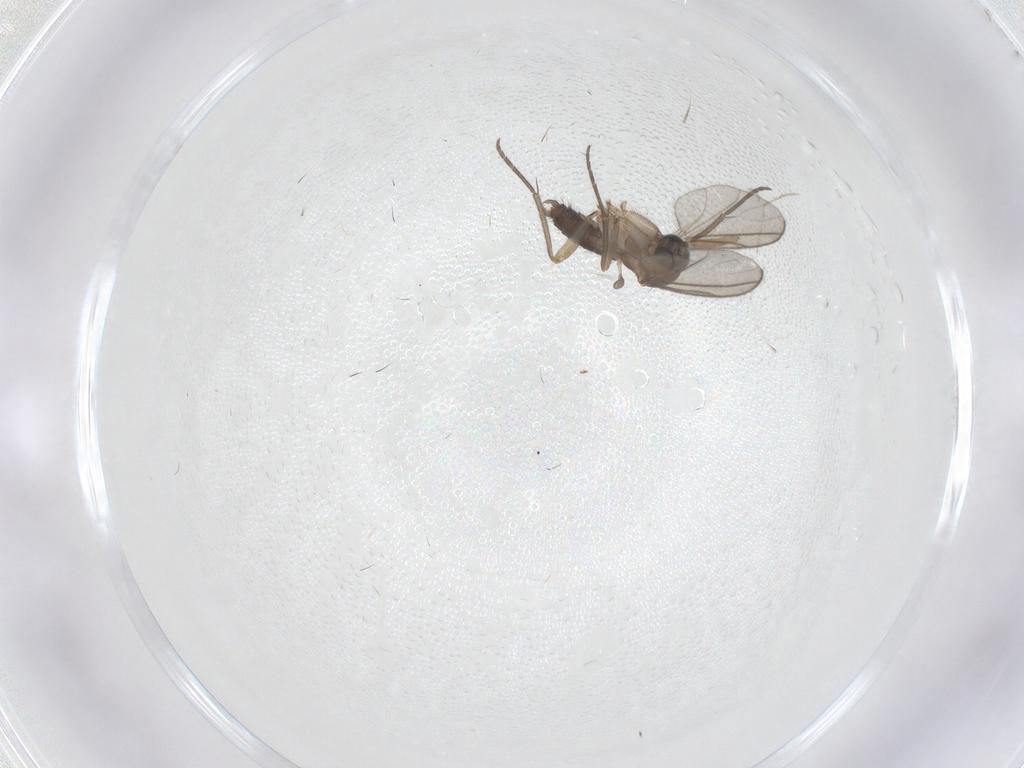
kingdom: Animalia
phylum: Arthropoda
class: Insecta
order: Diptera
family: Sciaridae
